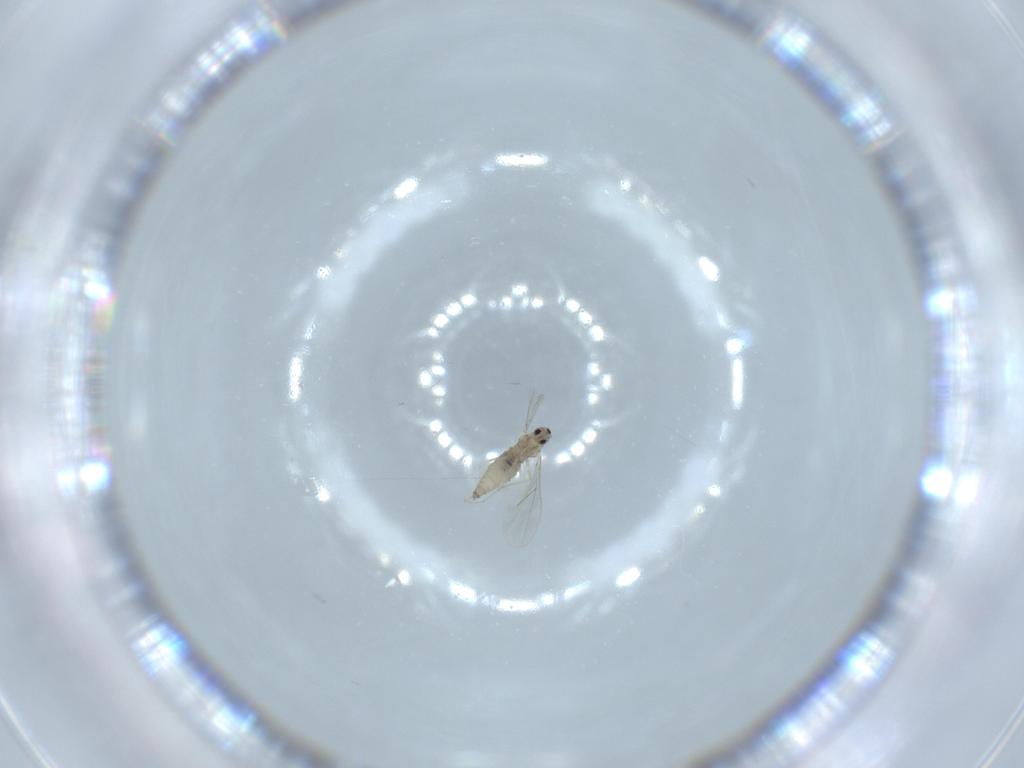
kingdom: Animalia
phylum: Arthropoda
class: Insecta
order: Diptera
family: Cecidomyiidae
